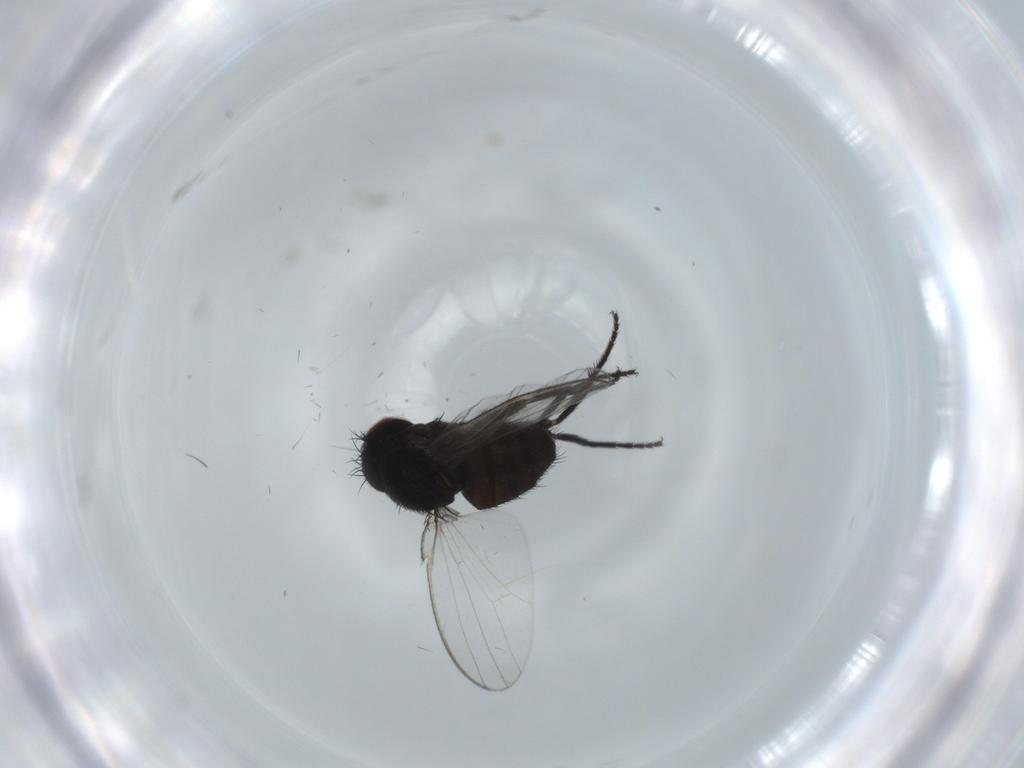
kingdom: Animalia
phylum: Arthropoda
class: Insecta
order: Diptera
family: Milichiidae
